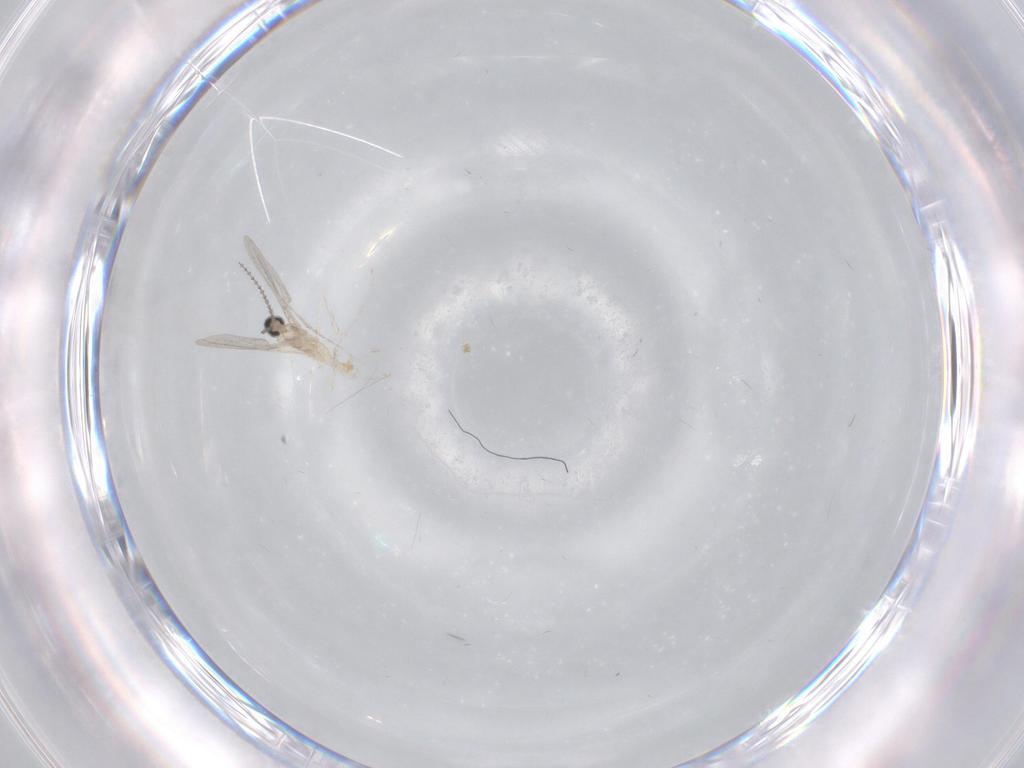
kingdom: Animalia
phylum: Arthropoda
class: Insecta
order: Diptera
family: Cecidomyiidae
